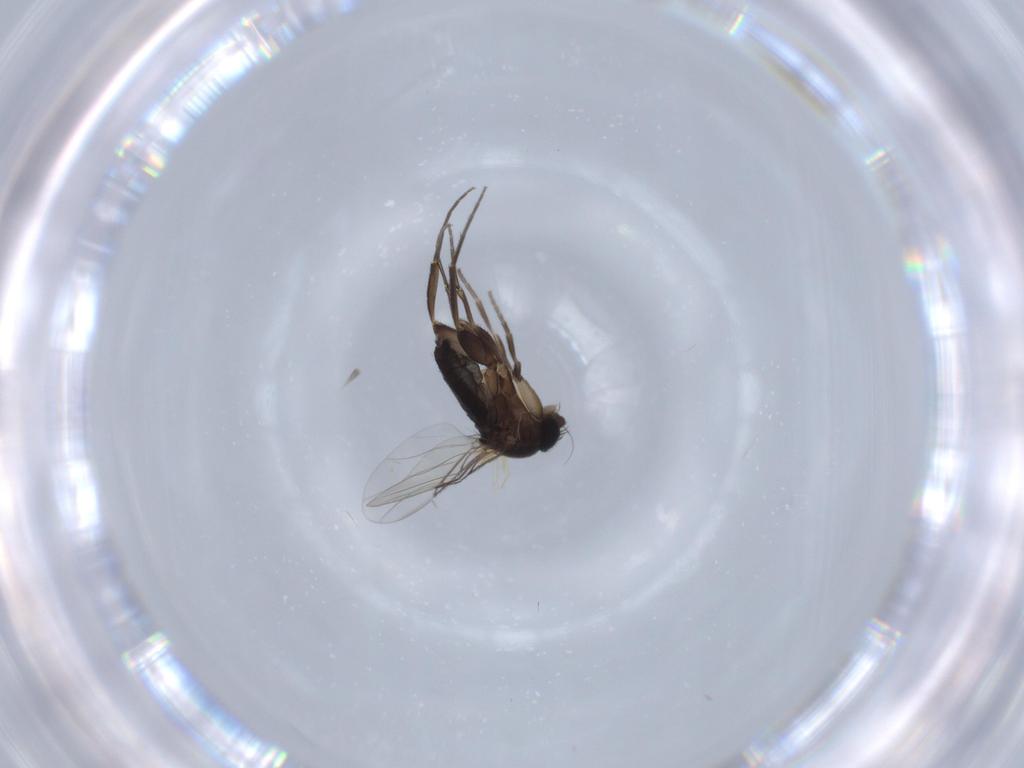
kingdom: Animalia
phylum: Arthropoda
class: Insecta
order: Diptera
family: Phoridae
